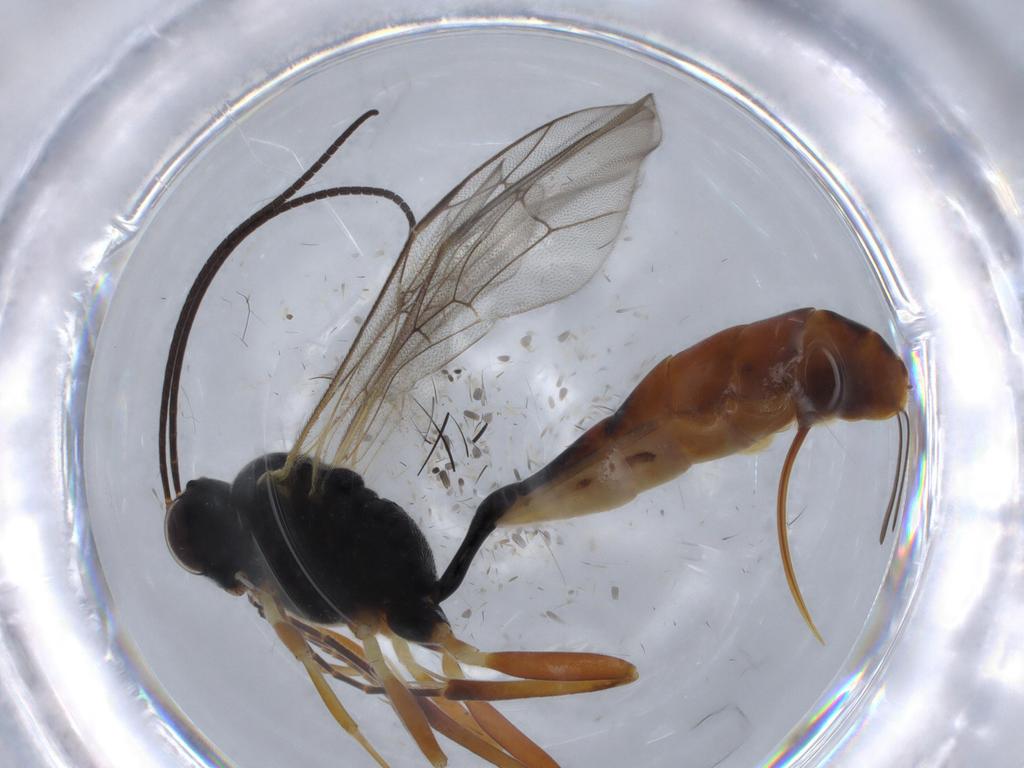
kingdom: Animalia
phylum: Arthropoda
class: Insecta
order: Hymenoptera
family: Ichneumonidae
